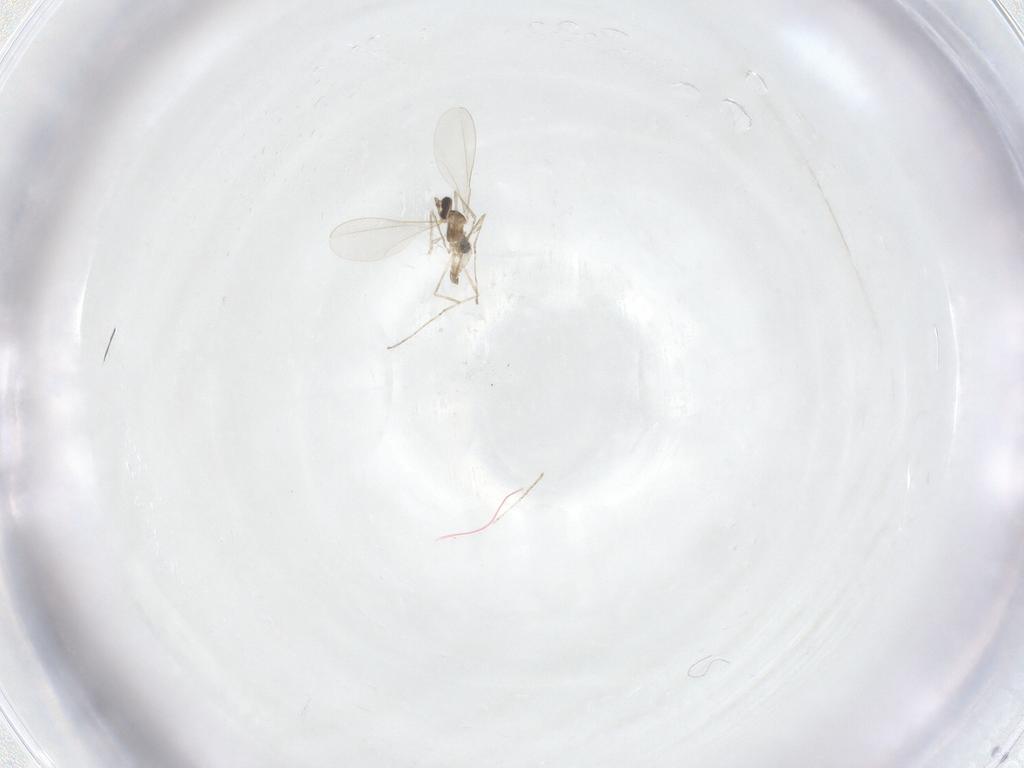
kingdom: Animalia
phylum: Arthropoda
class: Insecta
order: Diptera
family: Cecidomyiidae
